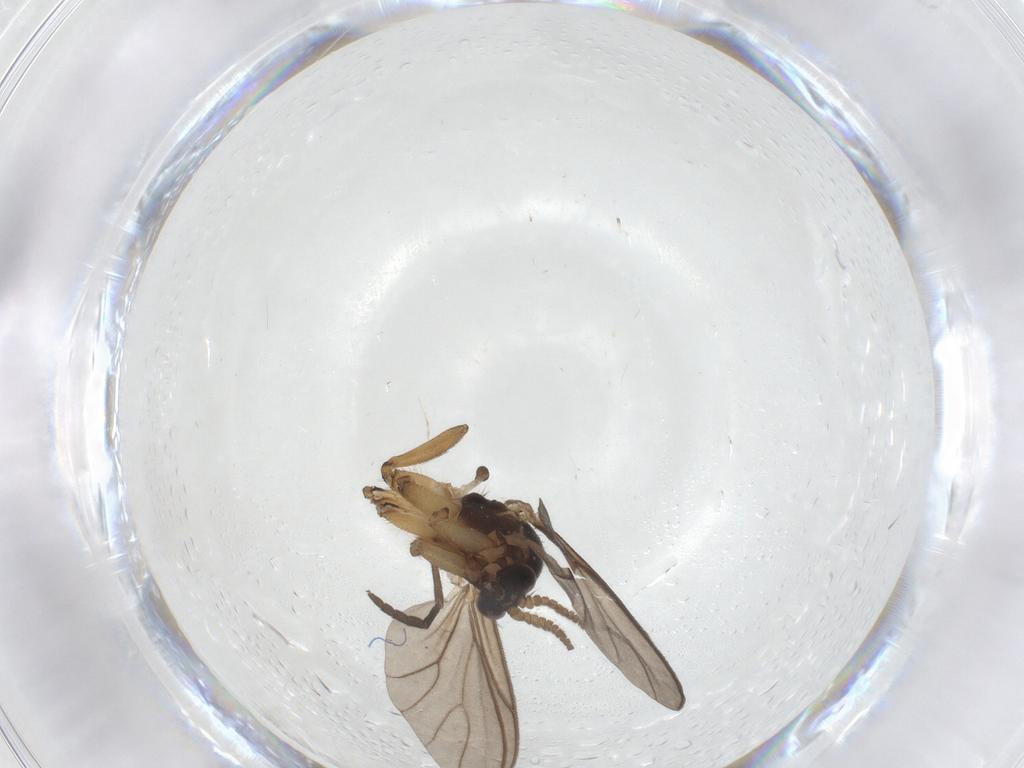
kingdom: Animalia
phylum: Arthropoda
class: Insecta
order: Diptera
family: Mycetophilidae
